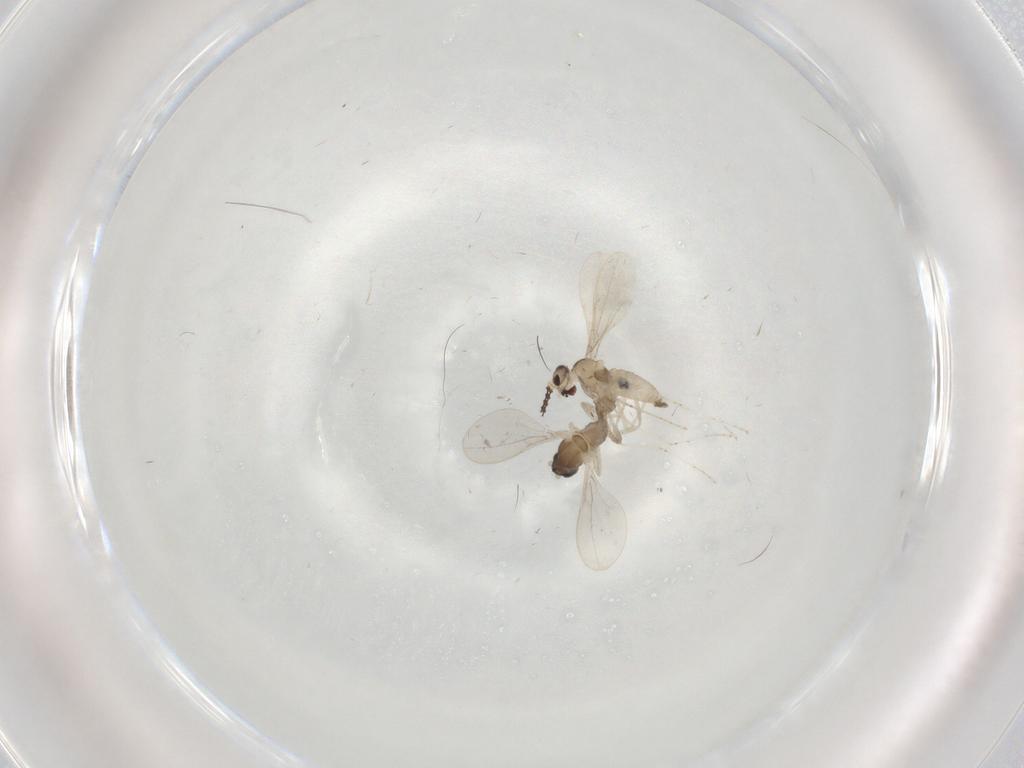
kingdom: Animalia
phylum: Arthropoda
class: Insecta
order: Diptera
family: Cecidomyiidae
